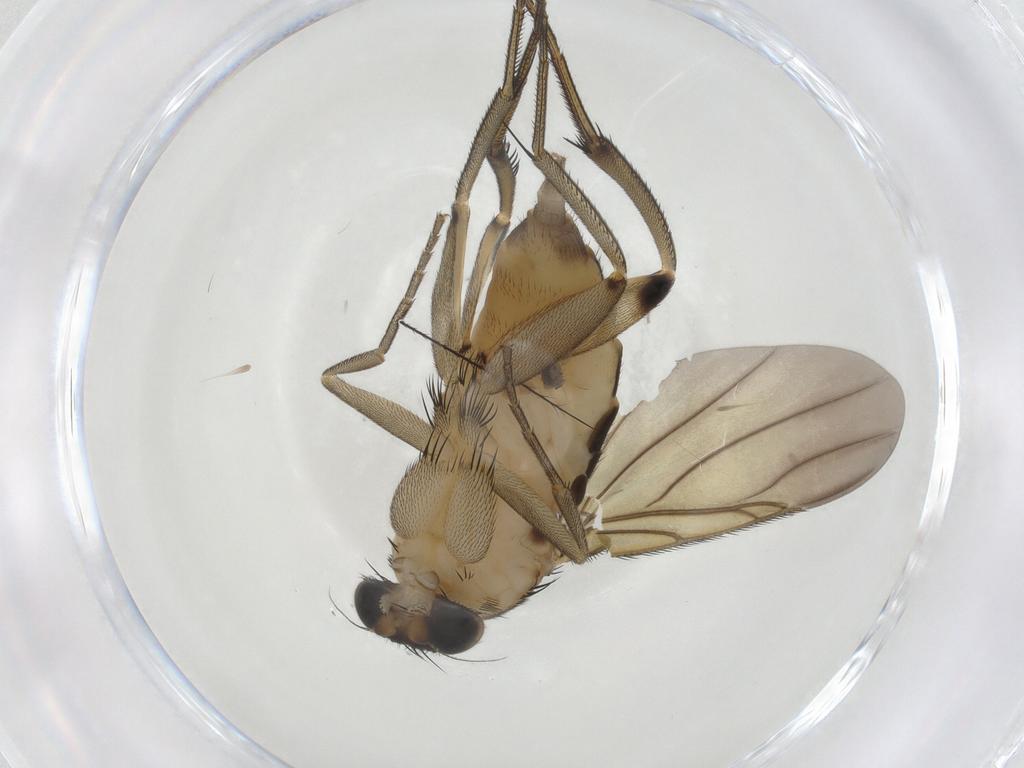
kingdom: Animalia
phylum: Arthropoda
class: Insecta
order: Diptera
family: Phoridae
